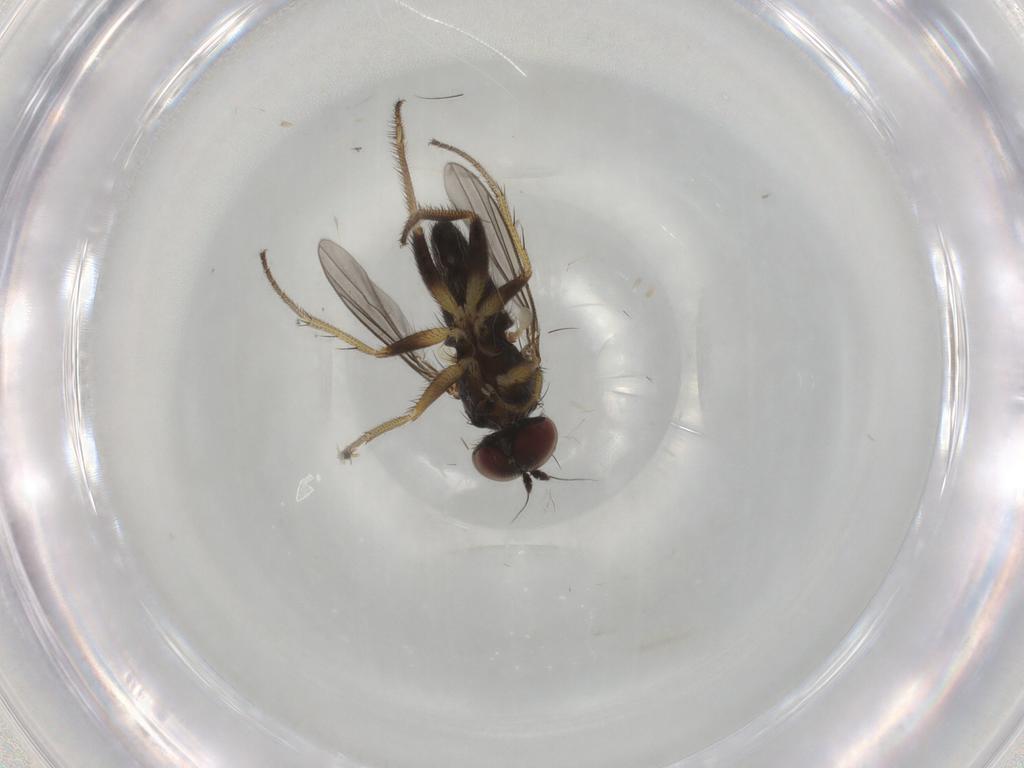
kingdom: Animalia
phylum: Arthropoda
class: Insecta
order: Diptera
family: Dolichopodidae
